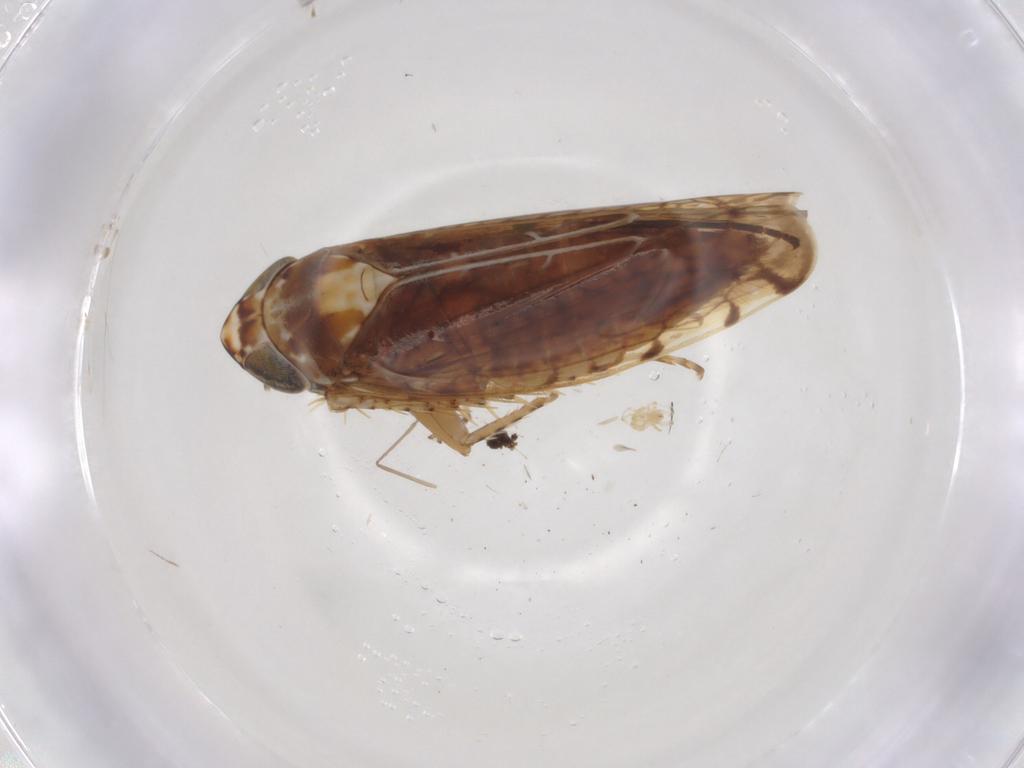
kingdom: Animalia
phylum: Arthropoda
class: Insecta
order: Hemiptera
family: Cicadellidae
